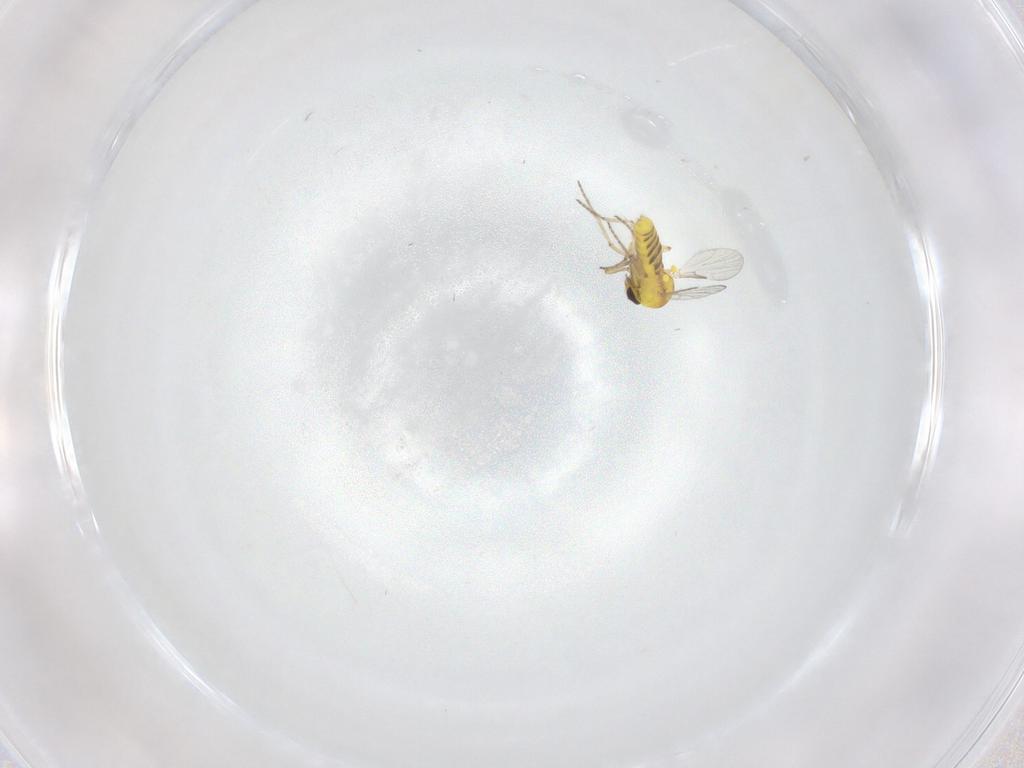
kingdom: Animalia
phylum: Arthropoda
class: Insecta
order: Diptera
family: Ceratopogonidae
